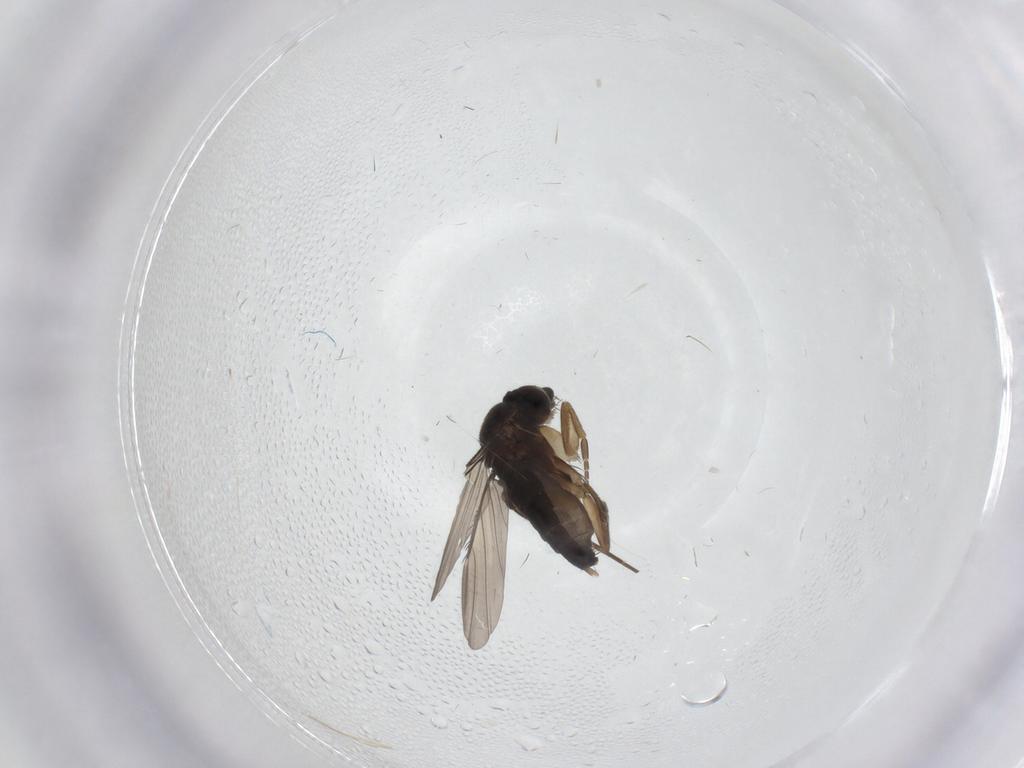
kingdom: Animalia
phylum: Arthropoda
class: Insecta
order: Diptera
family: Phoridae
